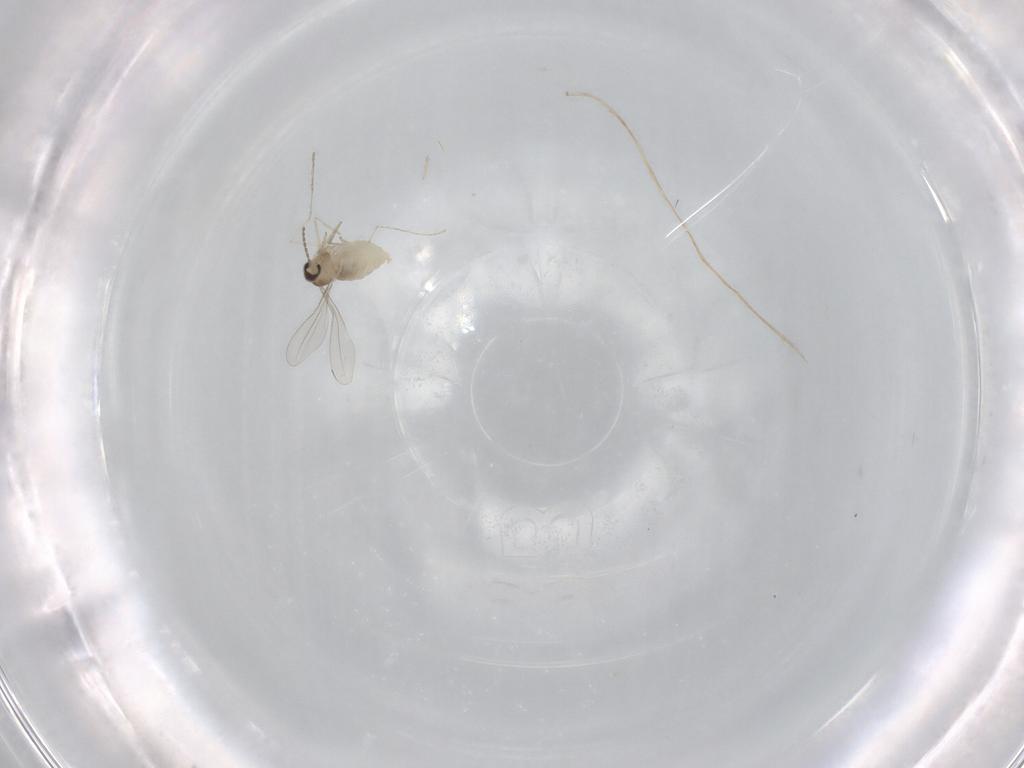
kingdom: Animalia
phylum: Arthropoda
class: Insecta
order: Diptera
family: Cecidomyiidae
